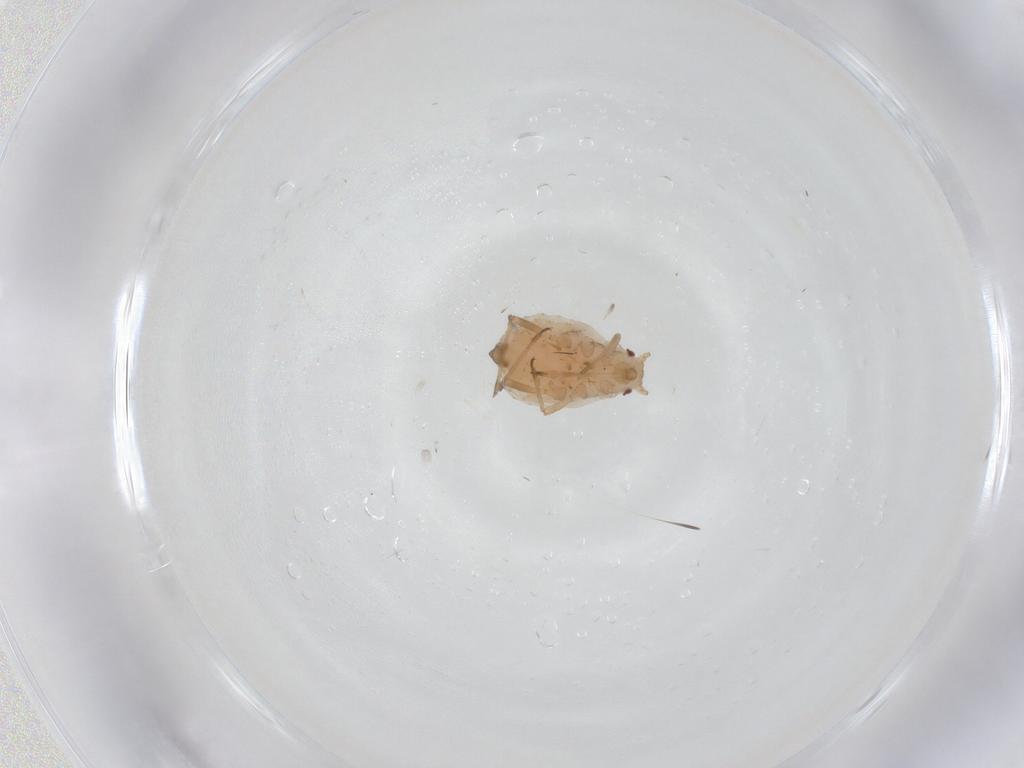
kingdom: Animalia
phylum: Arthropoda
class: Insecta
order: Hemiptera
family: Aphididae
